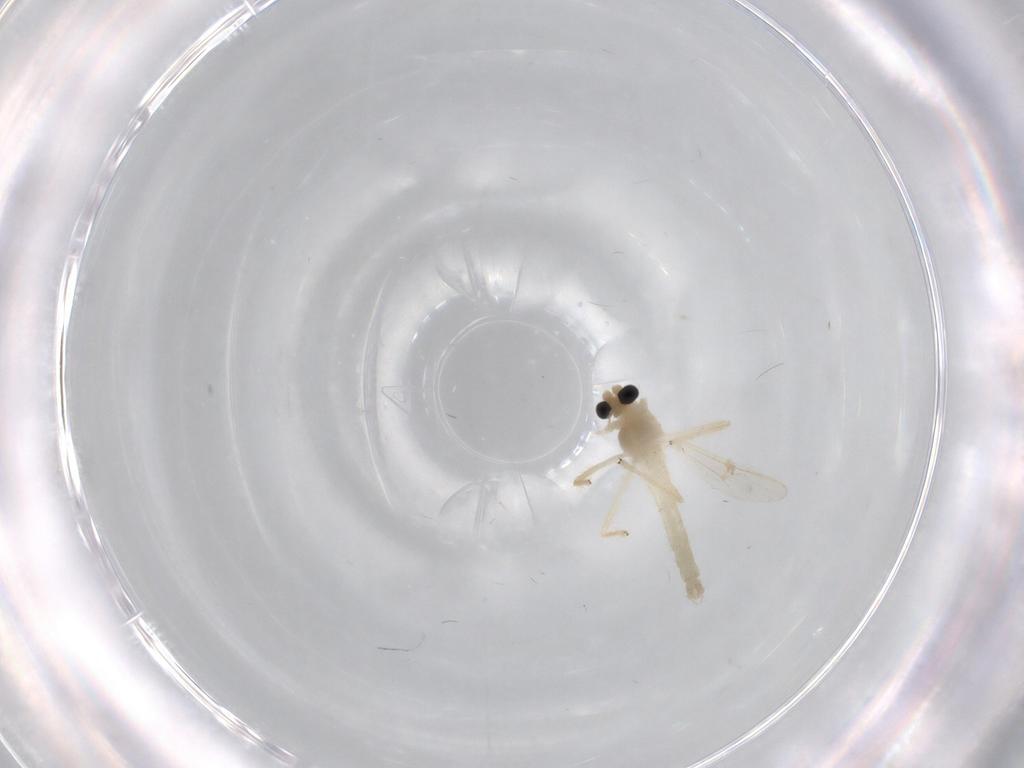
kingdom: Animalia
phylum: Arthropoda
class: Insecta
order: Diptera
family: Chironomidae
